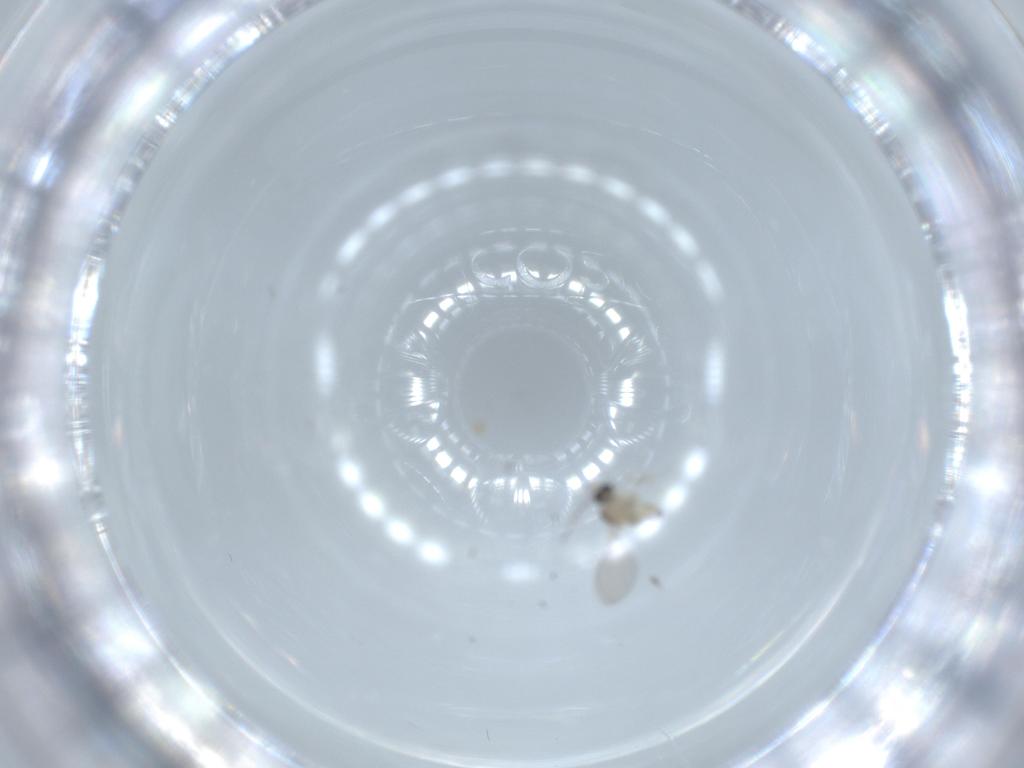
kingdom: Animalia
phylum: Arthropoda
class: Insecta
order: Diptera
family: Cecidomyiidae
